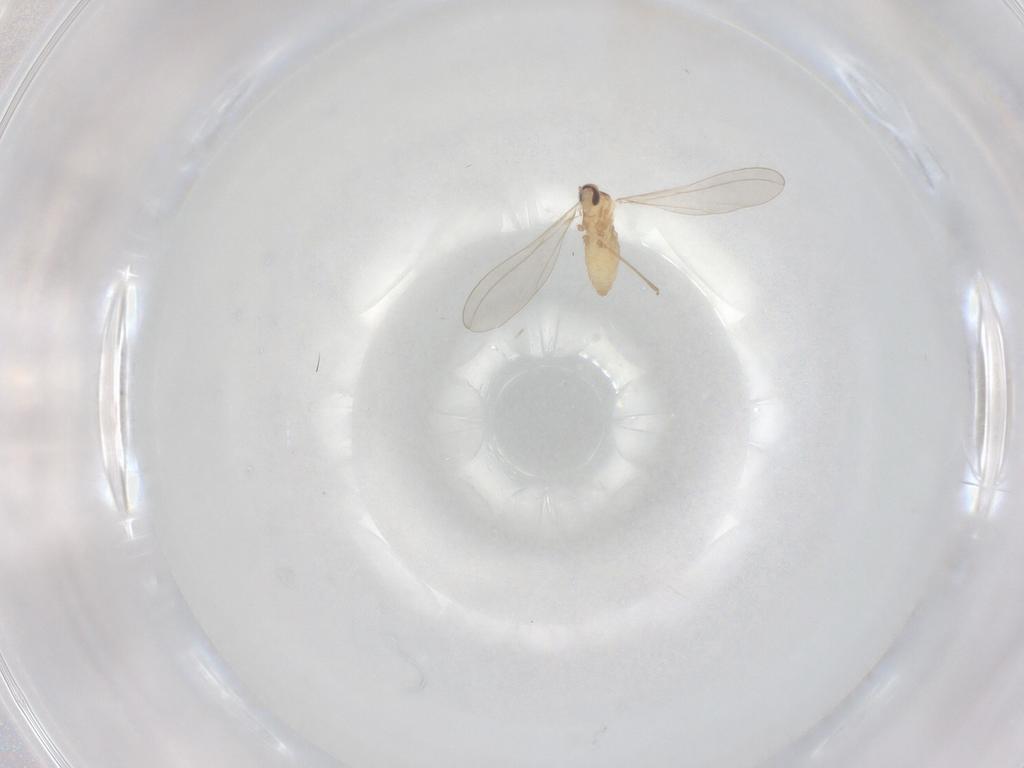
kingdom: Animalia
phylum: Arthropoda
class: Insecta
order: Diptera
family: Cecidomyiidae
